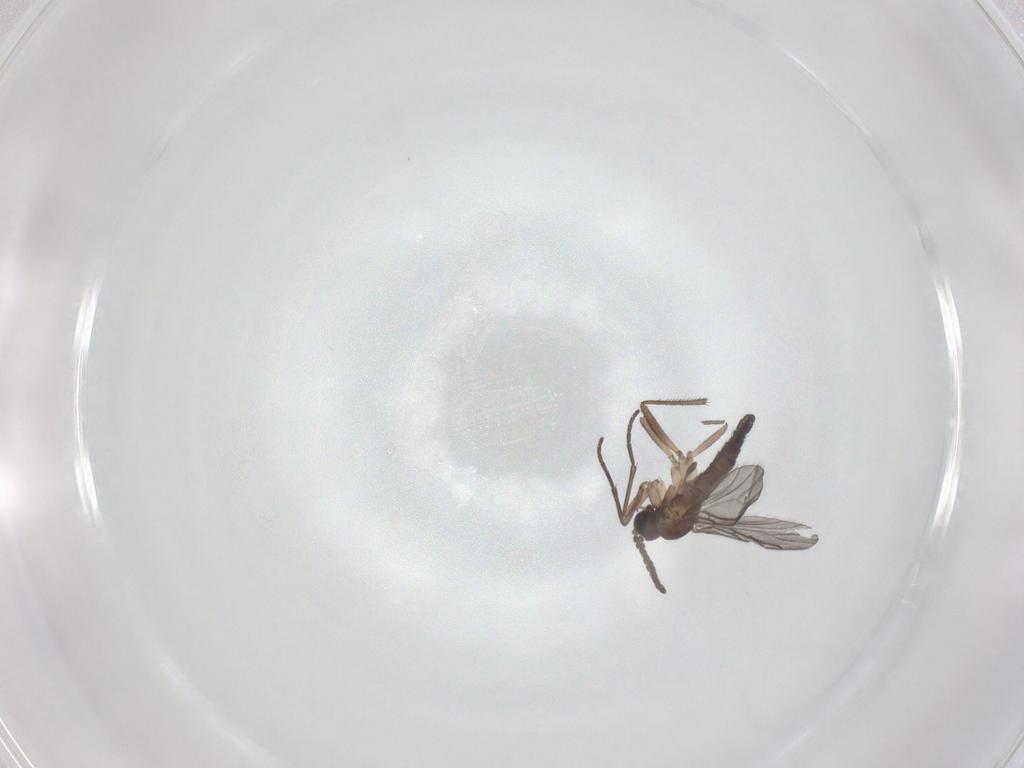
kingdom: Animalia
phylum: Arthropoda
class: Insecta
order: Diptera
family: Sciaridae
